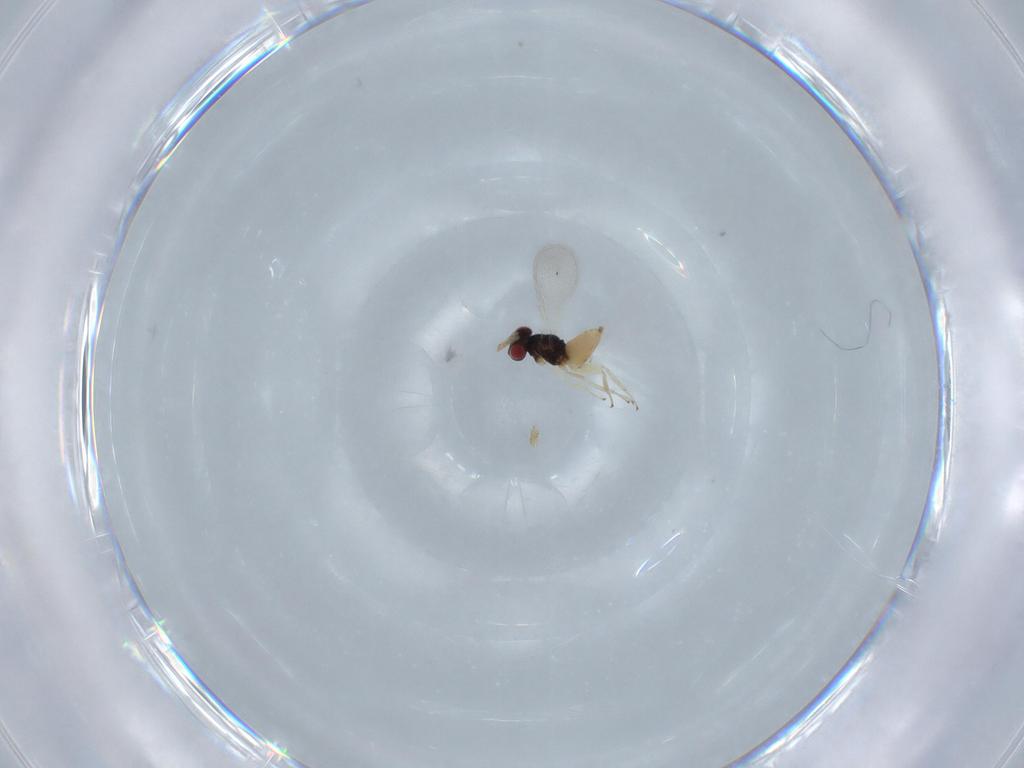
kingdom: Animalia
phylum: Arthropoda
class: Insecta
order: Hymenoptera
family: Eulophidae
